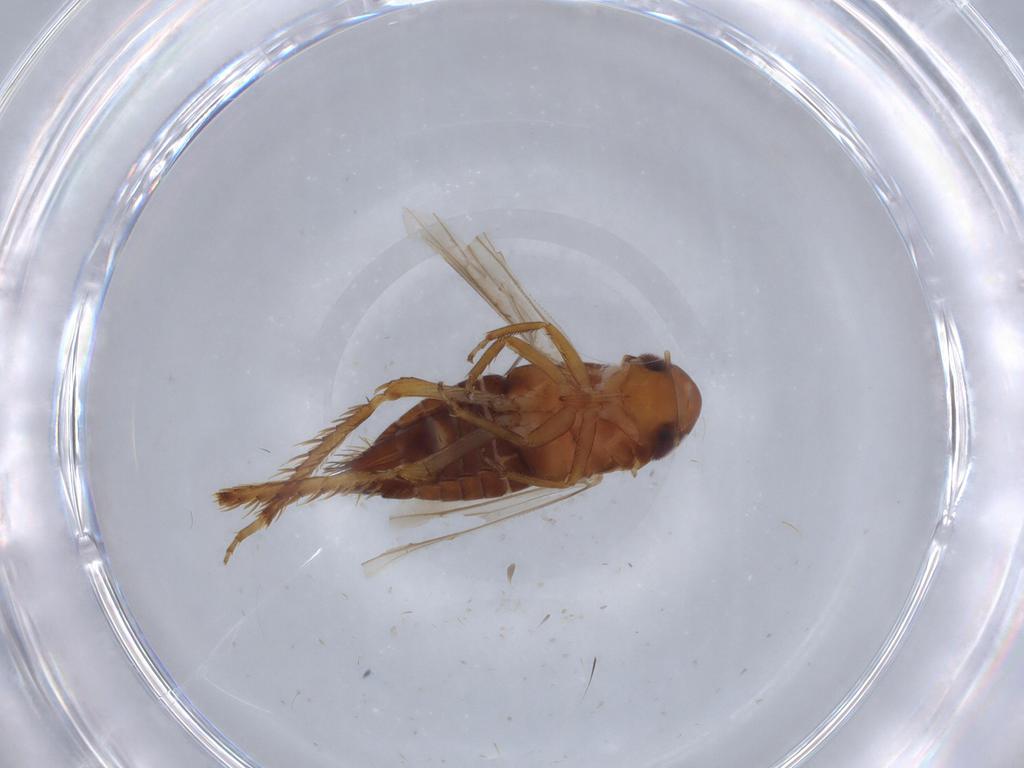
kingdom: Animalia
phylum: Arthropoda
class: Insecta
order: Hemiptera
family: Cicadellidae
